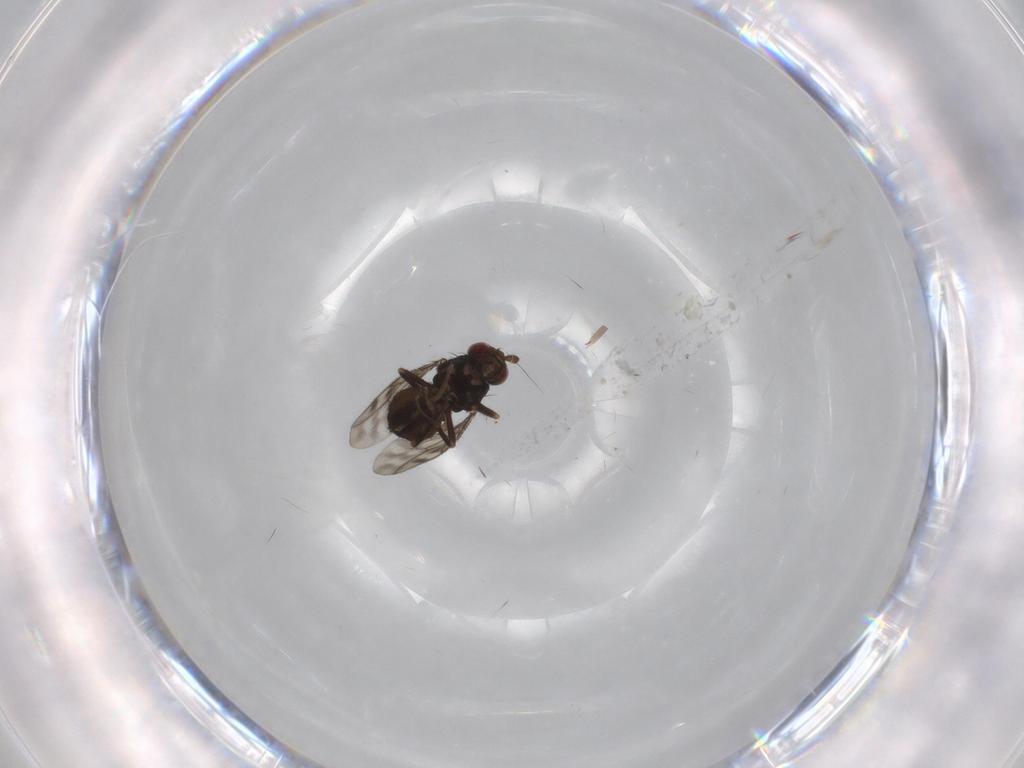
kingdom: Animalia
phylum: Arthropoda
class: Insecta
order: Diptera
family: Sphaeroceridae
